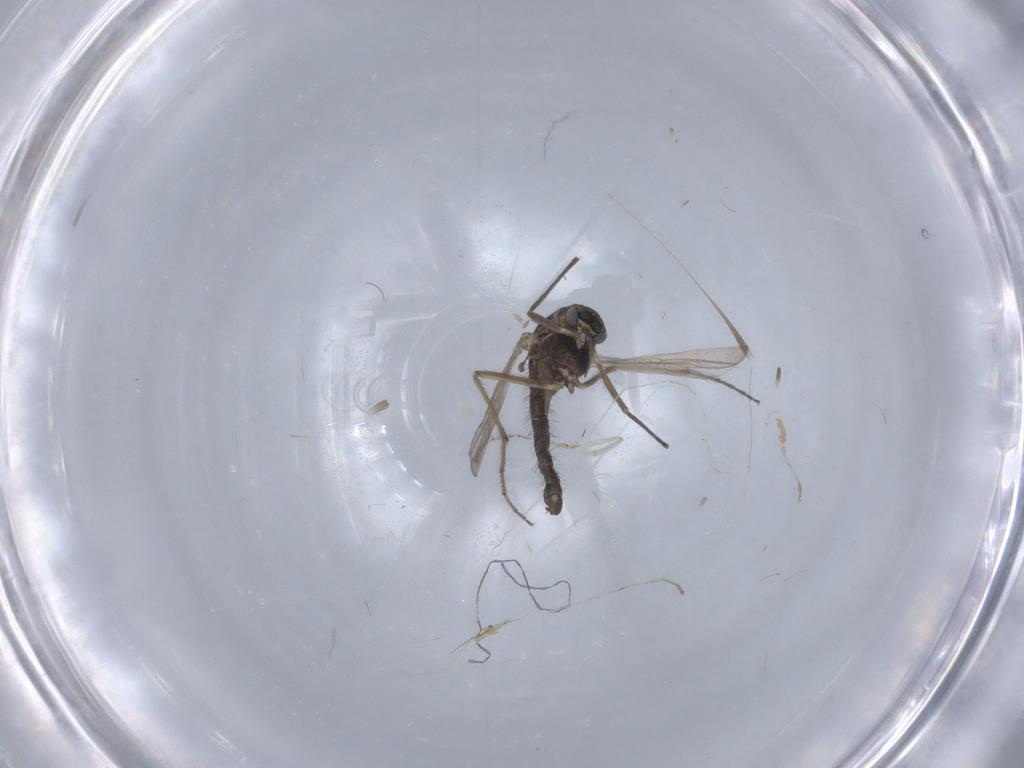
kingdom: Animalia
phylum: Arthropoda
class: Insecta
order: Diptera
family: Chironomidae
